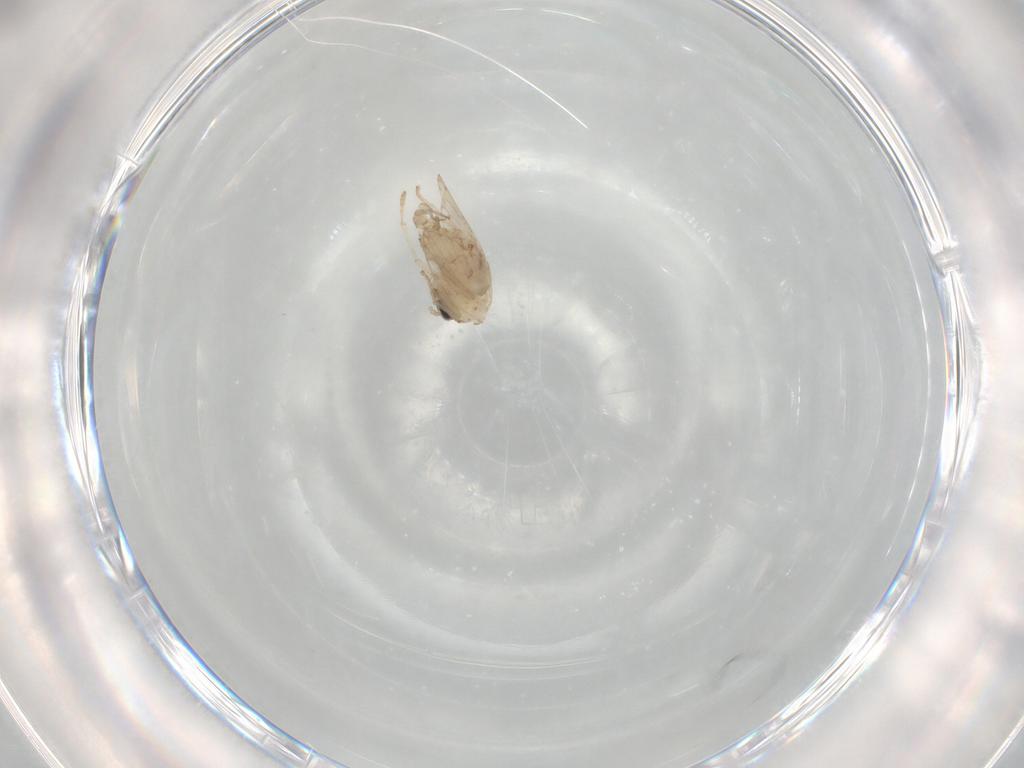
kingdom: Animalia
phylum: Arthropoda
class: Insecta
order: Diptera
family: Psychodidae
